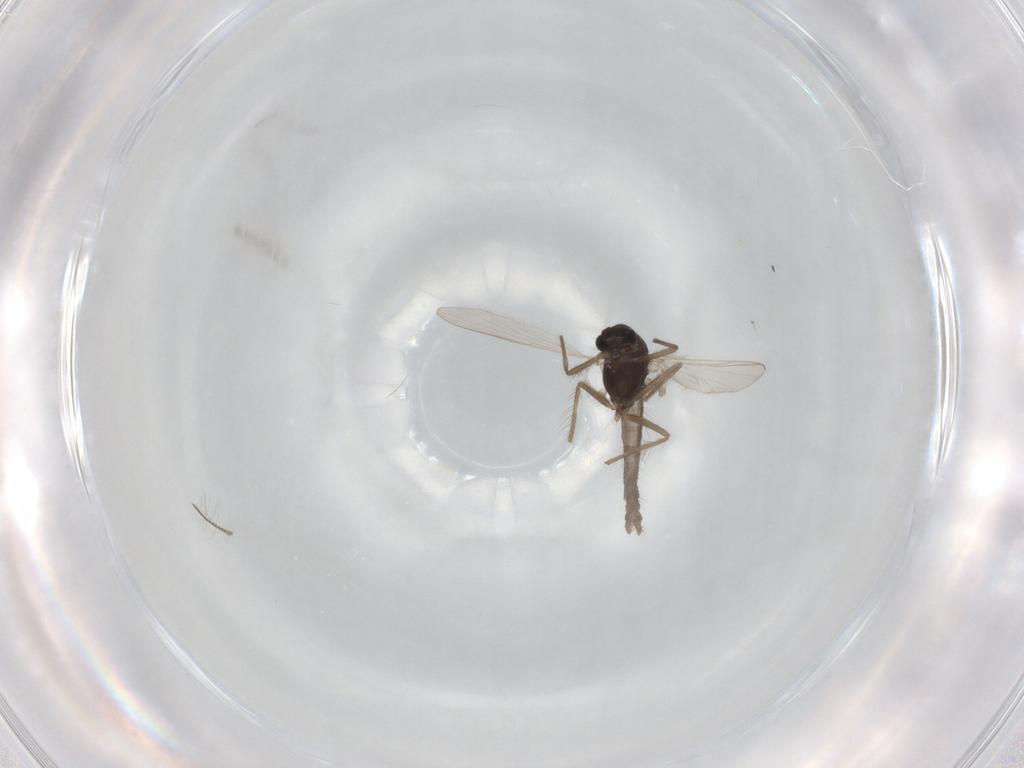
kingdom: Animalia
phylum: Arthropoda
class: Insecta
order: Diptera
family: Chironomidae
